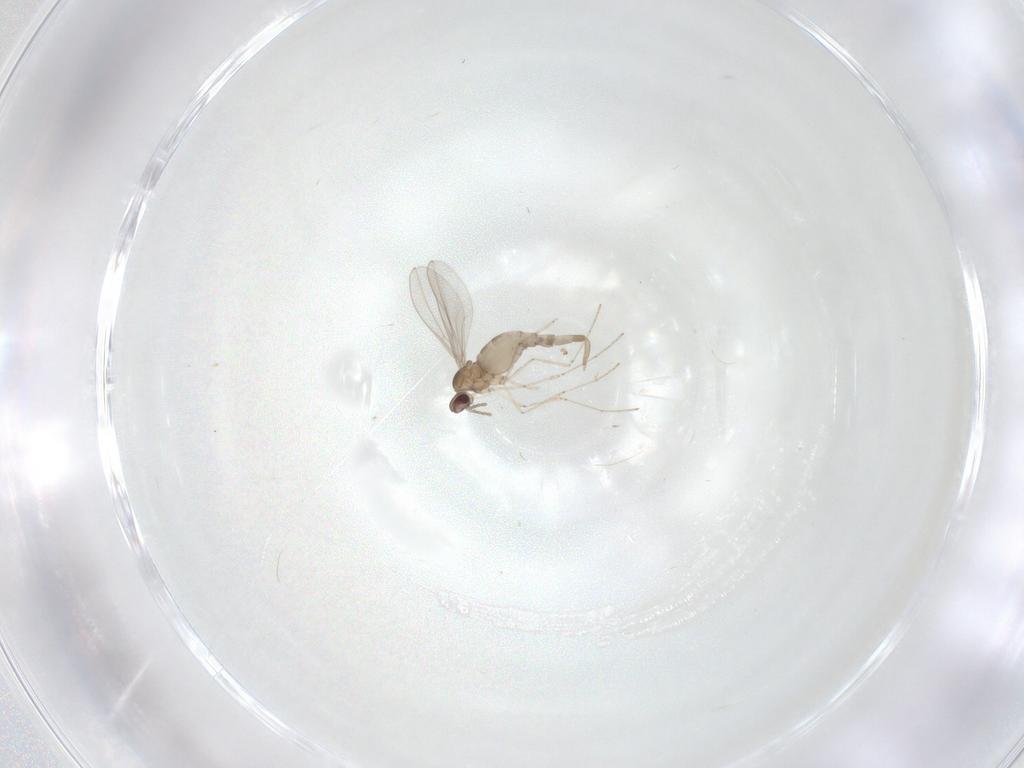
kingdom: Animalia
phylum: Arthropoda
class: Insecta
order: Diptera
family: Cecidomyiidae
